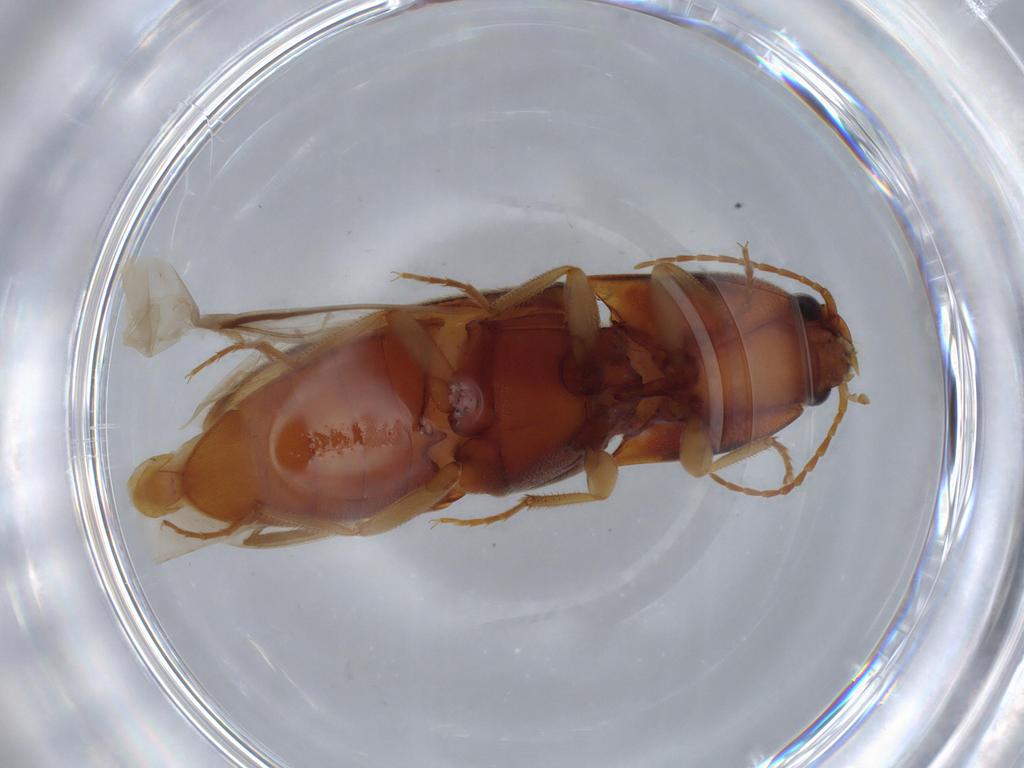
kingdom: Animalia
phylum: Arthropoda
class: Insecta
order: Coleoptera
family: Elateridae
